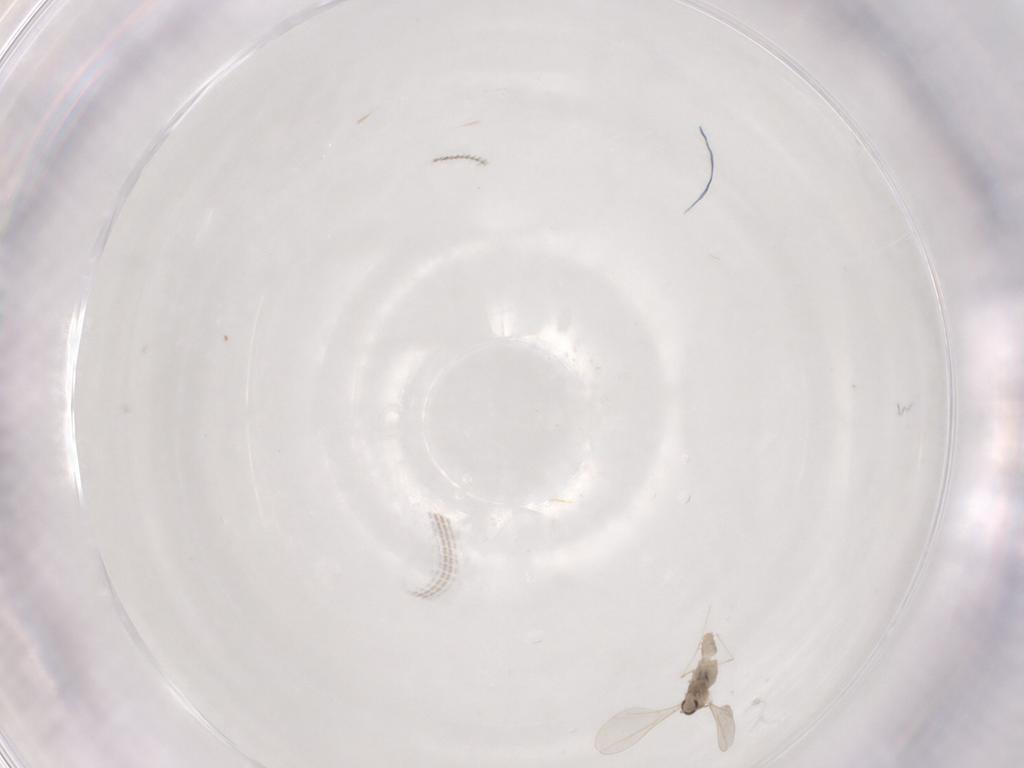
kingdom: Animalia
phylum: Arthropoda
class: Insecta
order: Diptera
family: Cecidomyiidae
